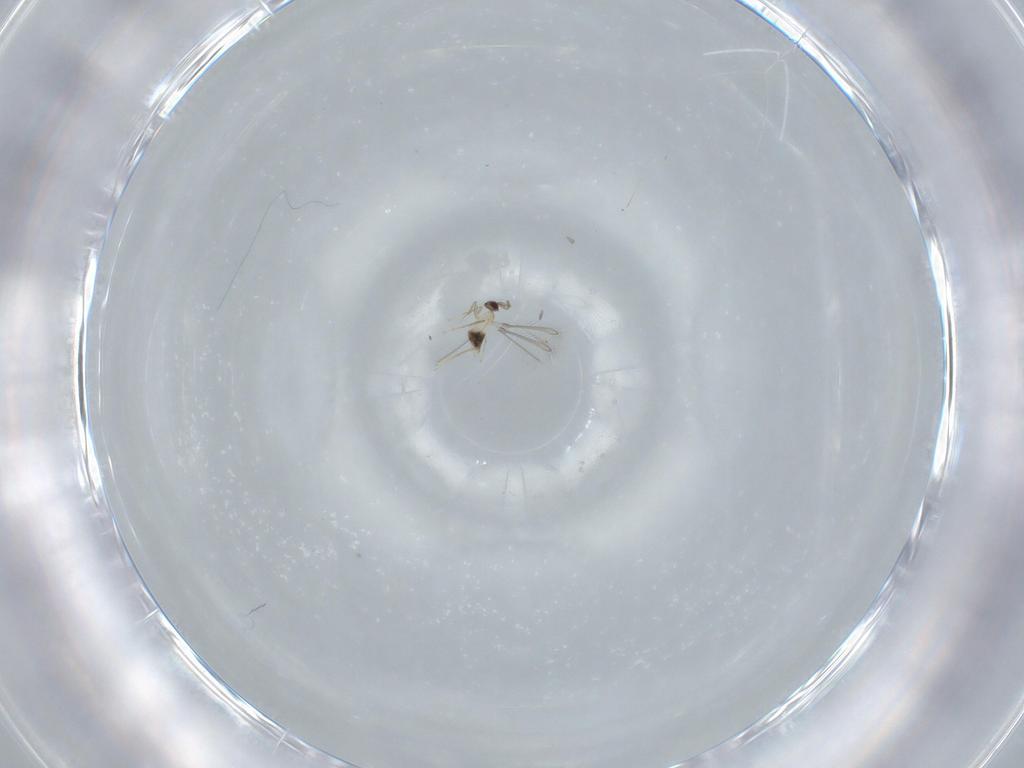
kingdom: Animalia
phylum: Arthropoda
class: Insecta
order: Hymenoptera
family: Mymaridae
